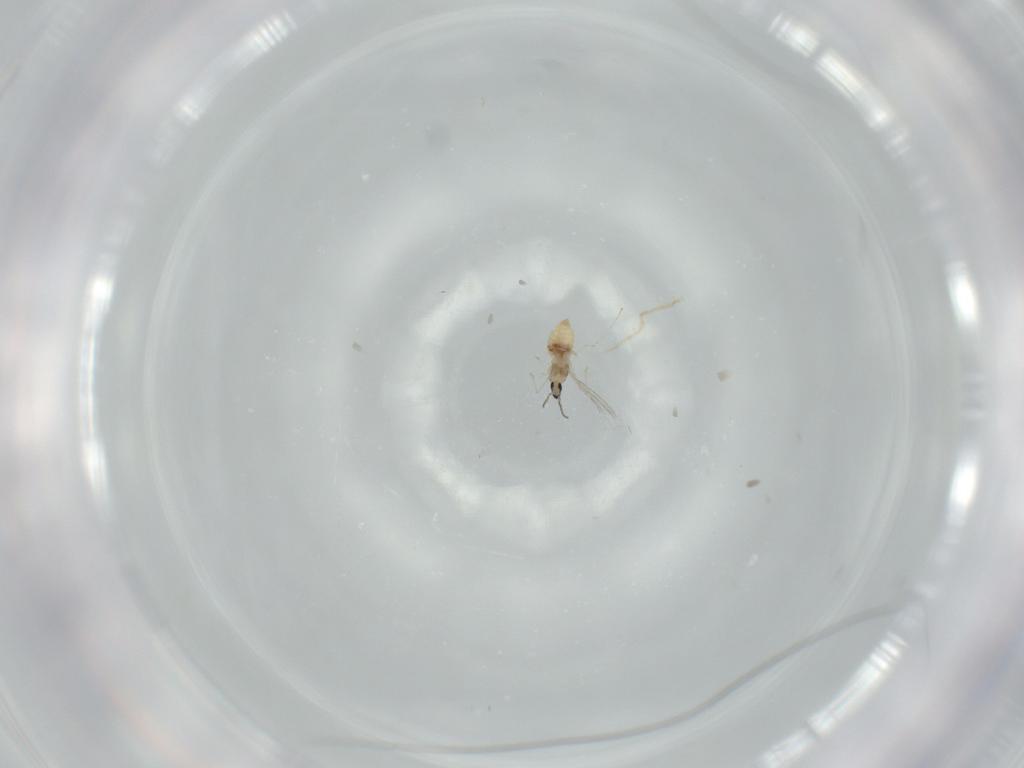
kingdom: Animalia
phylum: Arthropoda
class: Insecta
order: Diptera
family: Cecidomyiidae
